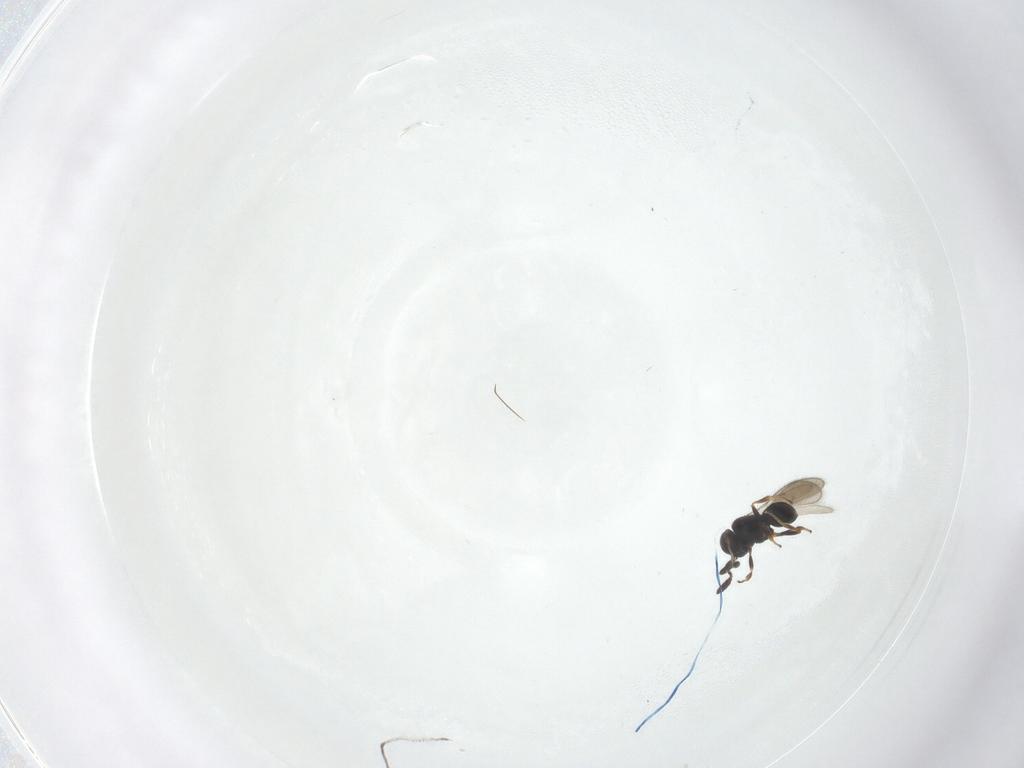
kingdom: Animalia
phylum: Arthropoda
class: Insecta
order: Hymenoptera
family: Scelionidae
